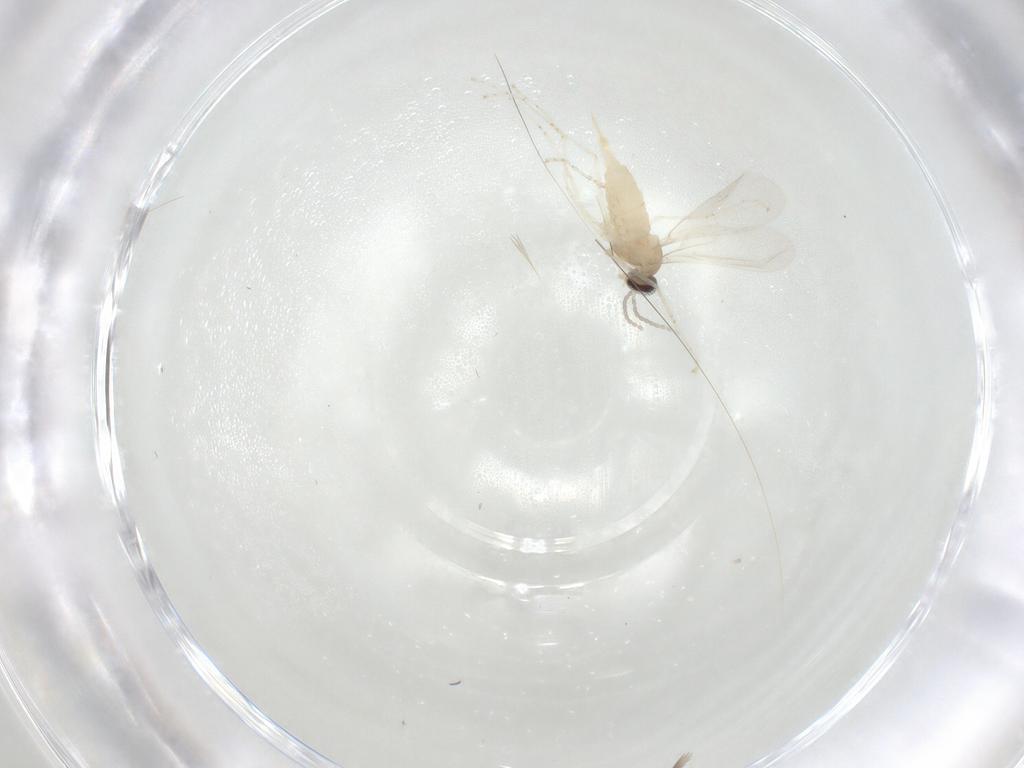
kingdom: Animalia
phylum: Arthropoda
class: Insecta
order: Diptera
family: Cecidomyiidae
